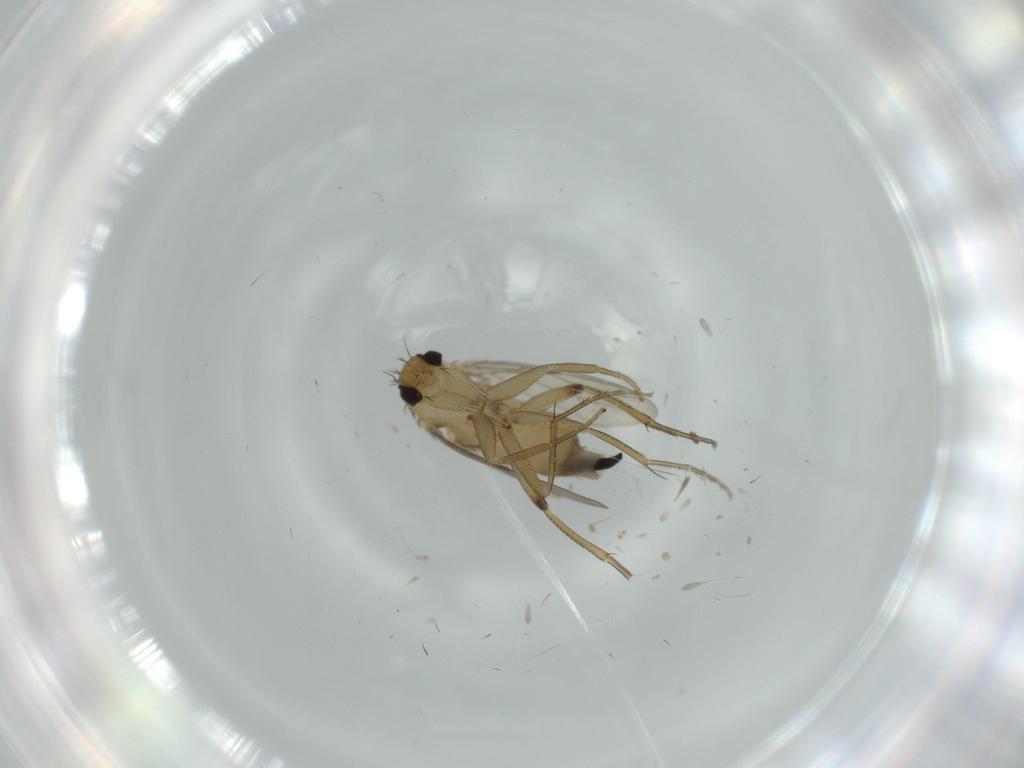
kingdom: Animalia
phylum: Arthropoda
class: Insecta
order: Diptera
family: Phoridae
